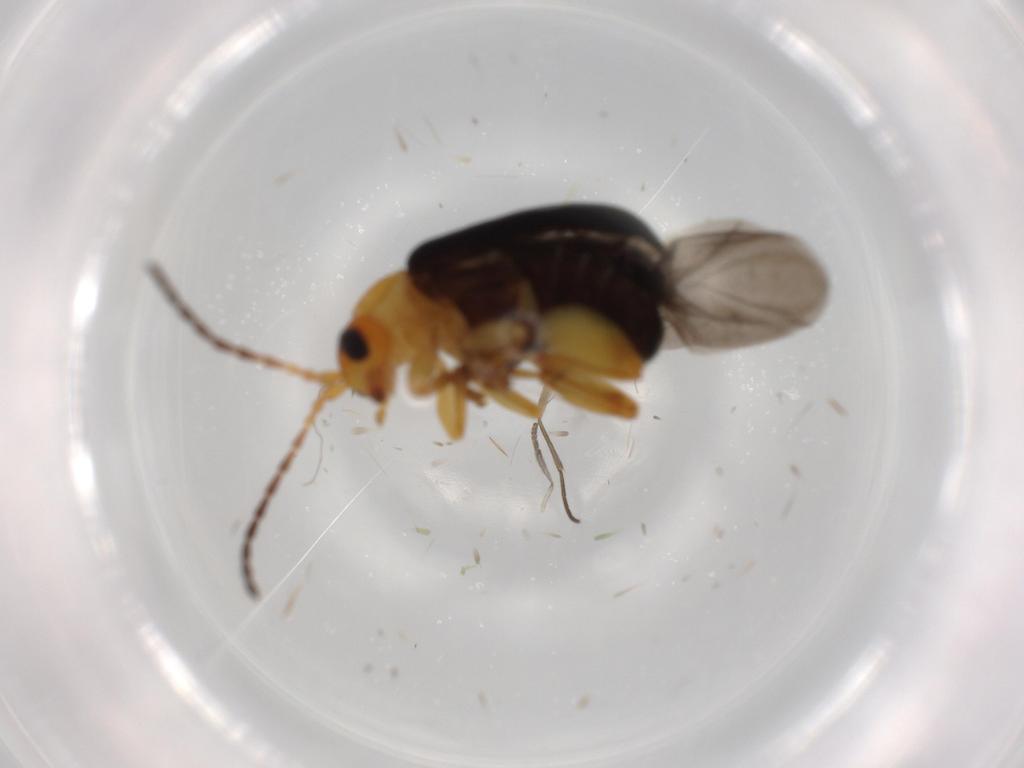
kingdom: Animalia
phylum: Arthropoda
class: Insecta
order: Coleoptera
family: Chrysomelidae
